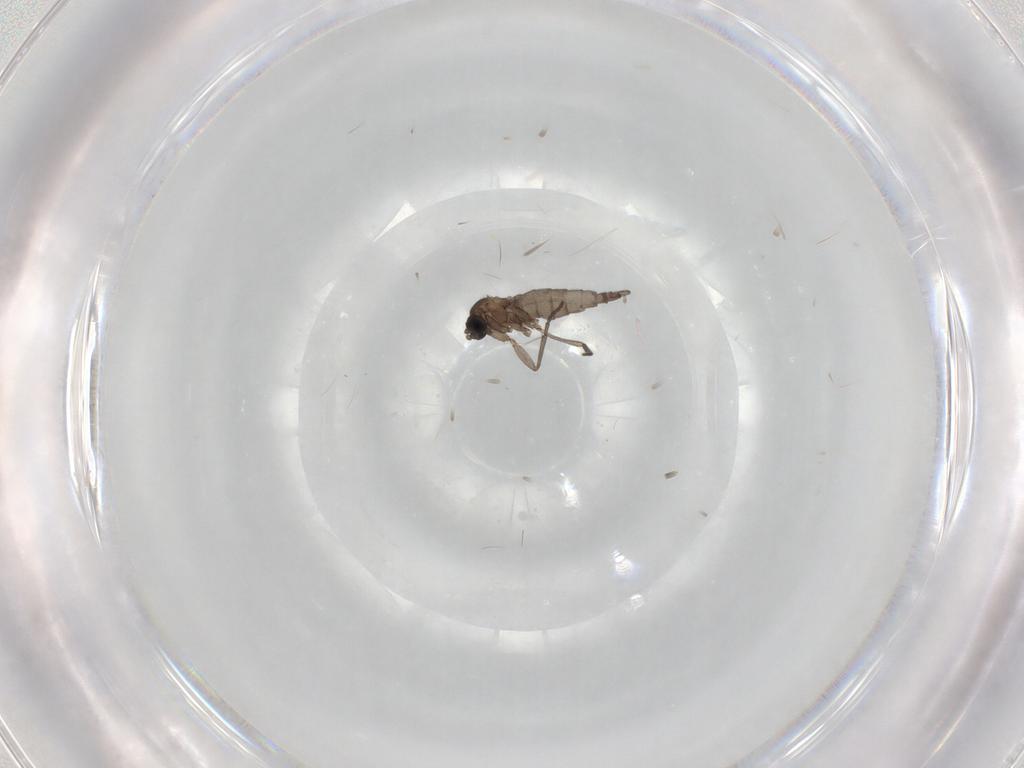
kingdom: Animalia
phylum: Arthropoda
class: Insecta
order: Diptera
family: Sciaridae
